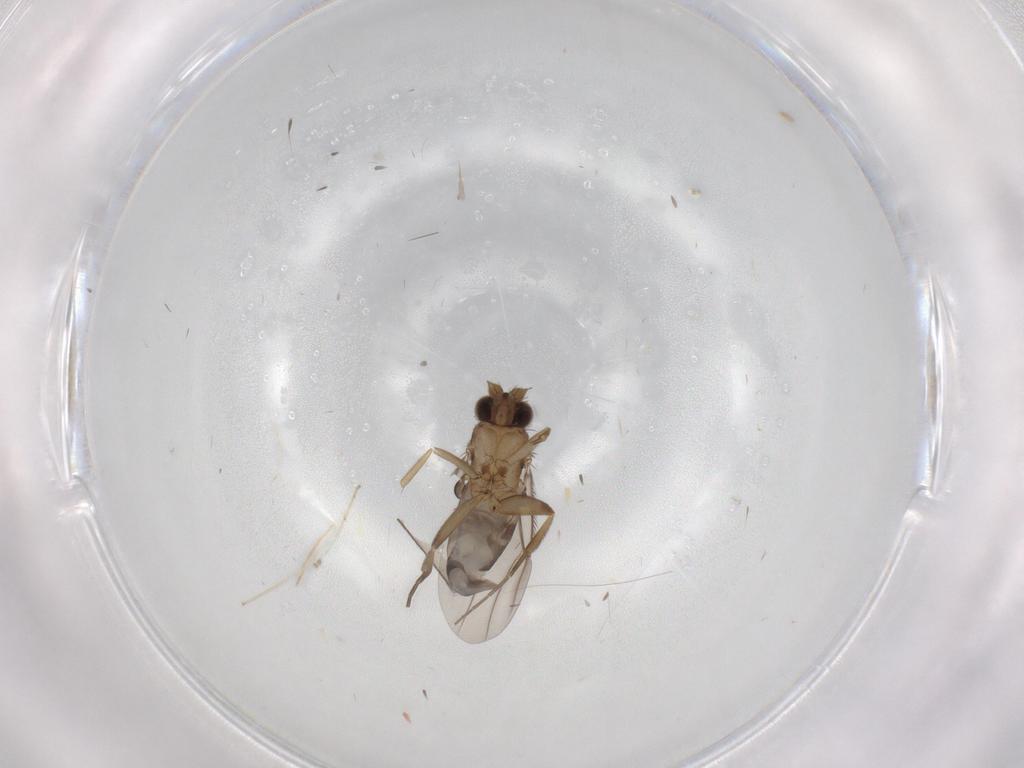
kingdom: Animalia
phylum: Arthropoda
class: Insecta
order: Diptera
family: Phoridae
